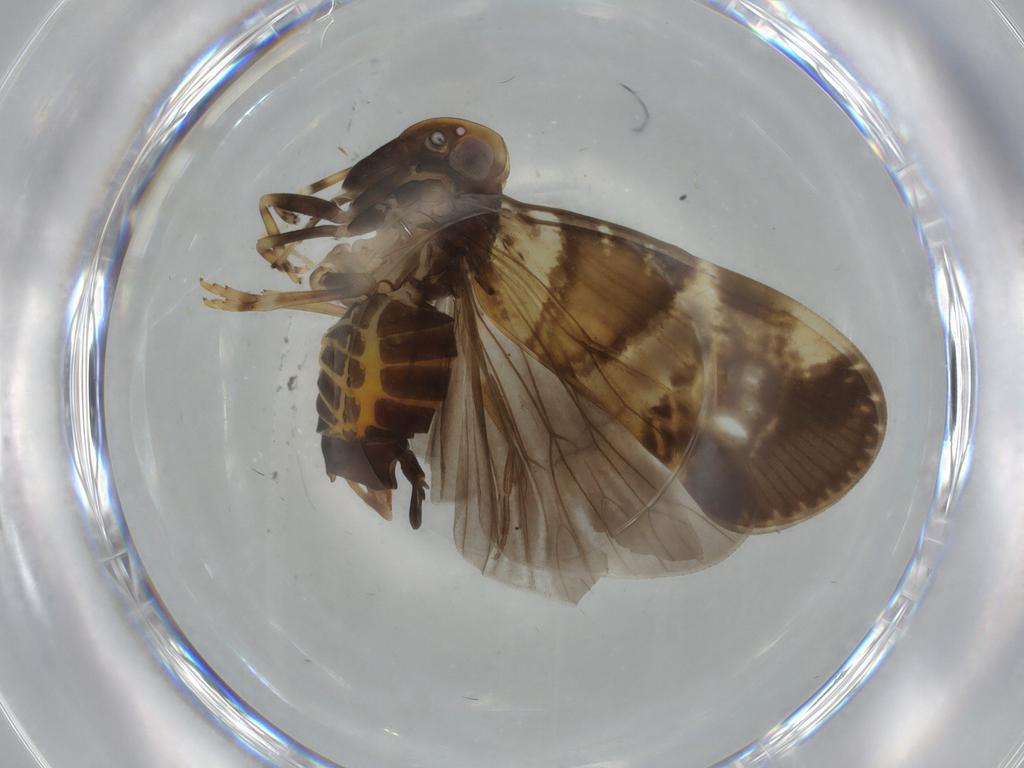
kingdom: Animalia
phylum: Arthropoda
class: Insecta
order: Hemiptera
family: Cixiidae
